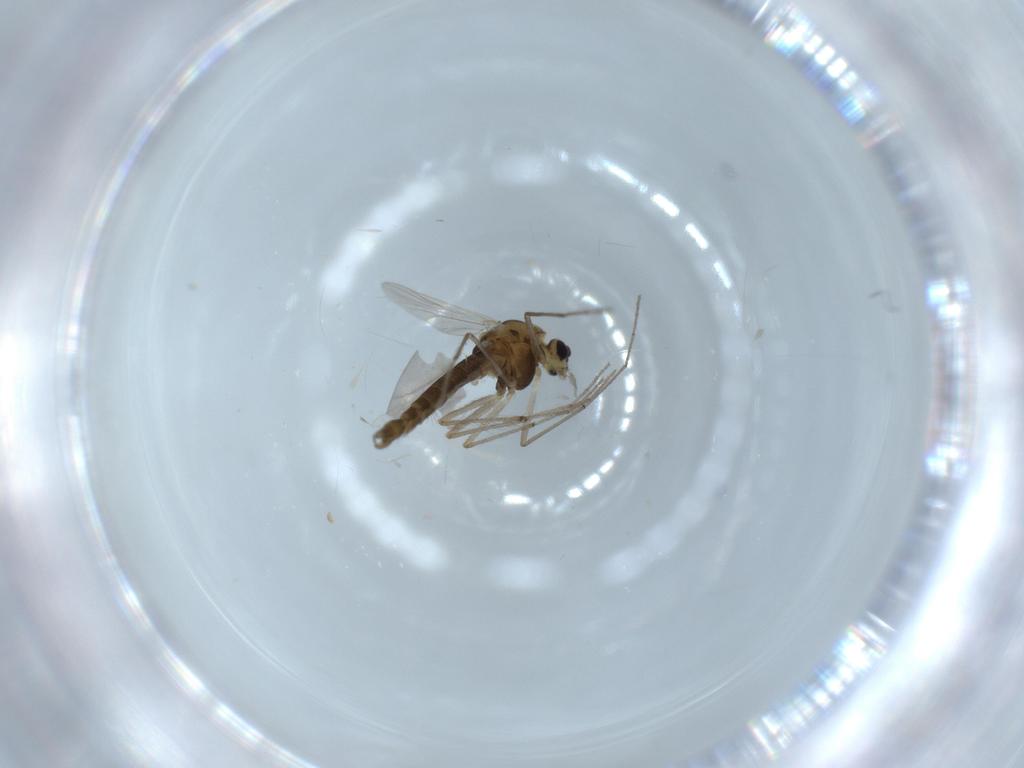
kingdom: Animalia
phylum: Arthropoda
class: Insecta
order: Diptera
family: Chironomidae
